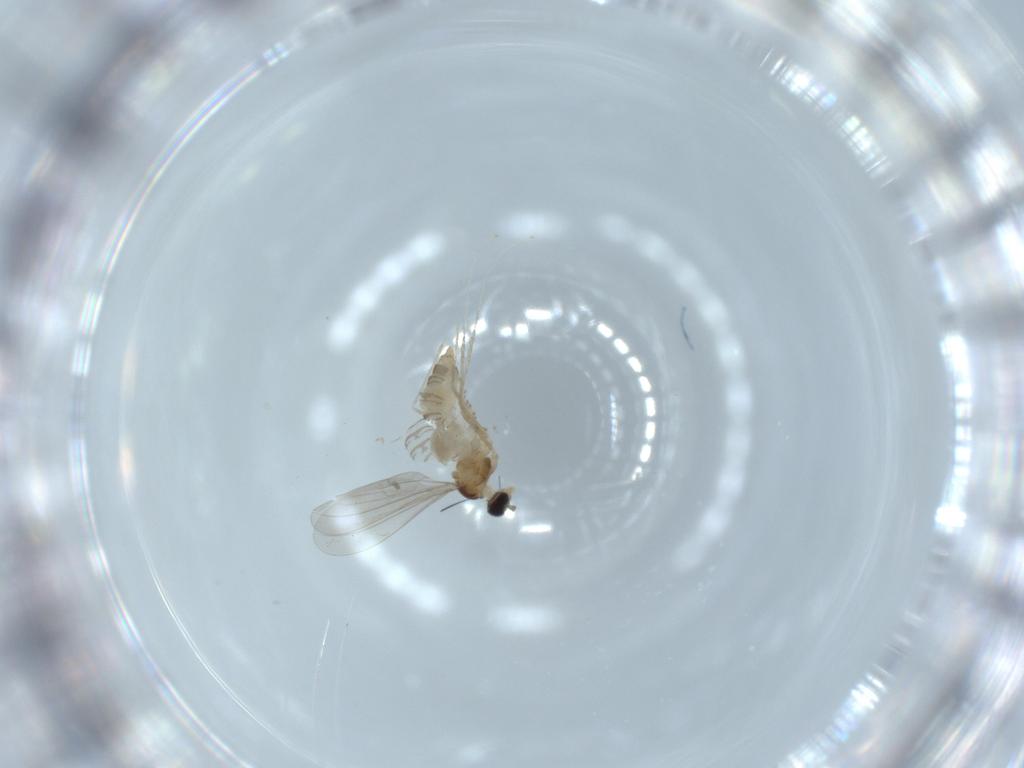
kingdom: Animalia
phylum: Arthropoda
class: Insecta
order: Diptera
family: Cecidomyiidae
